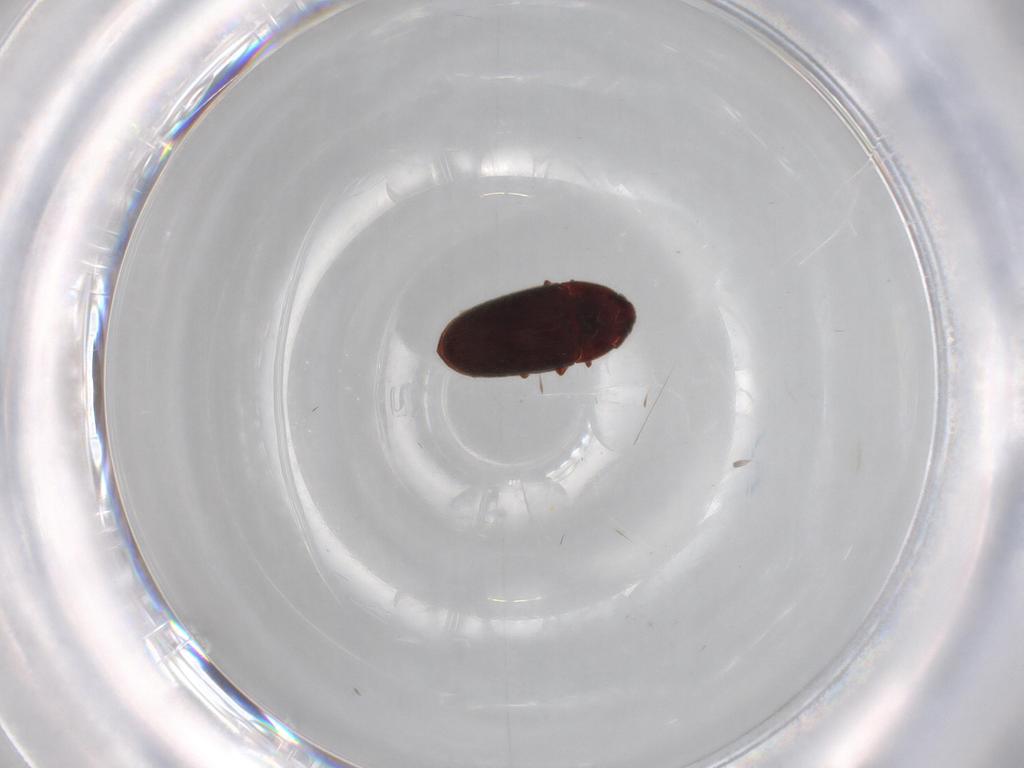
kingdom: Animalia
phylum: Arthropoda
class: Insecta
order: Coleoptera
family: Throscidae
